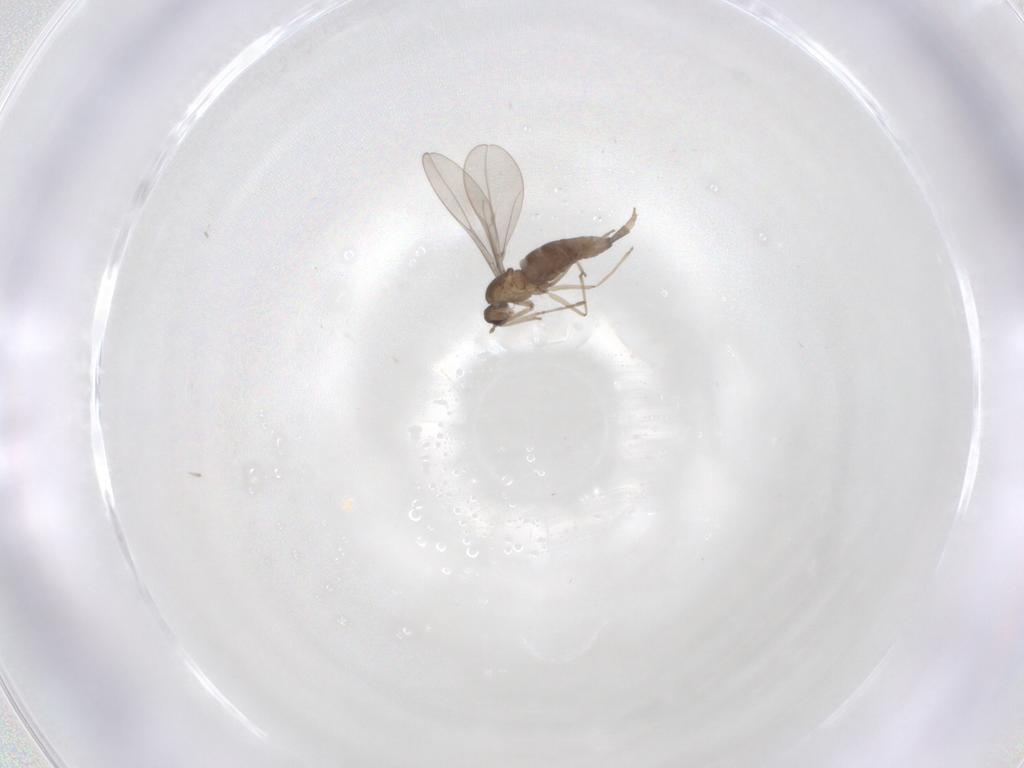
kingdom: Animalia
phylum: Arthropoda
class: Insecta
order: Diptera
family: Cecidomyiidae
